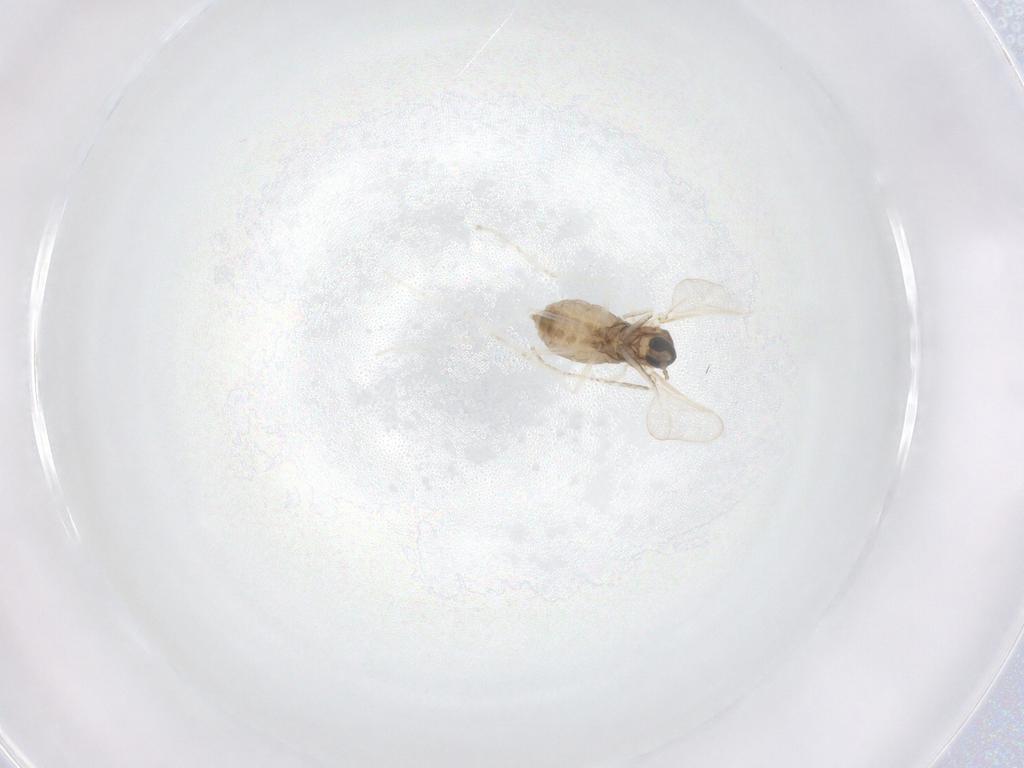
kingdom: Animalia
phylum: Arthropoda
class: Insecta
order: Diptera
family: Cecidomyiidae
